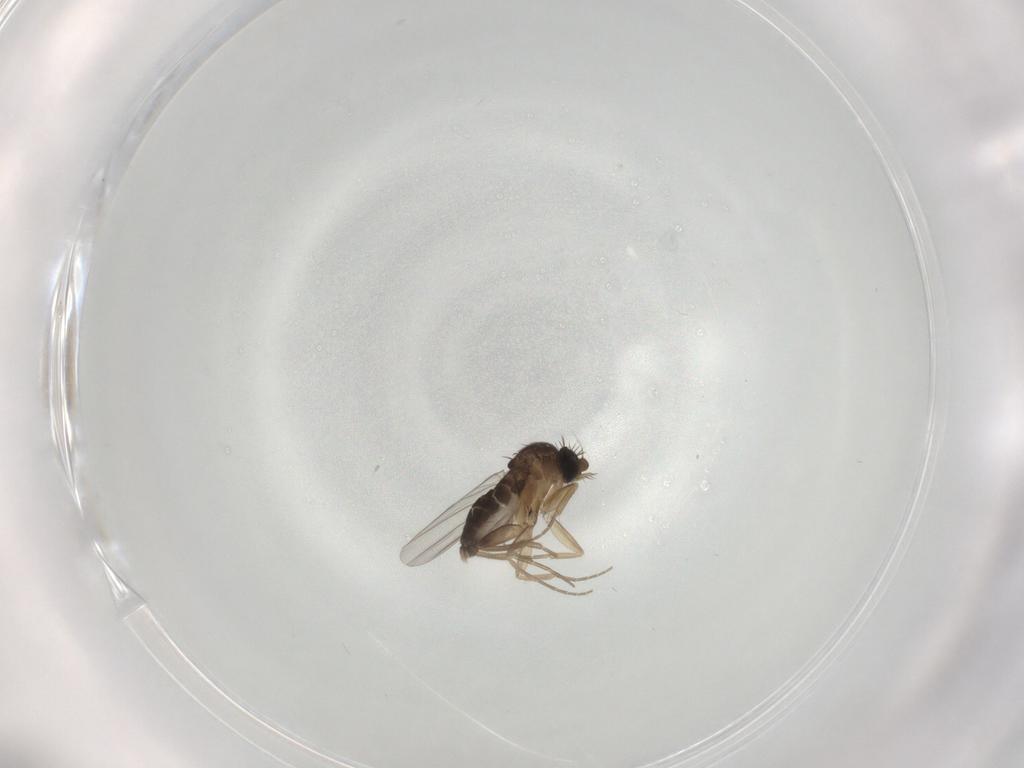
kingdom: Animalia
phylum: Arthropoda
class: Insecta
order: Diptera
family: Phoridae
